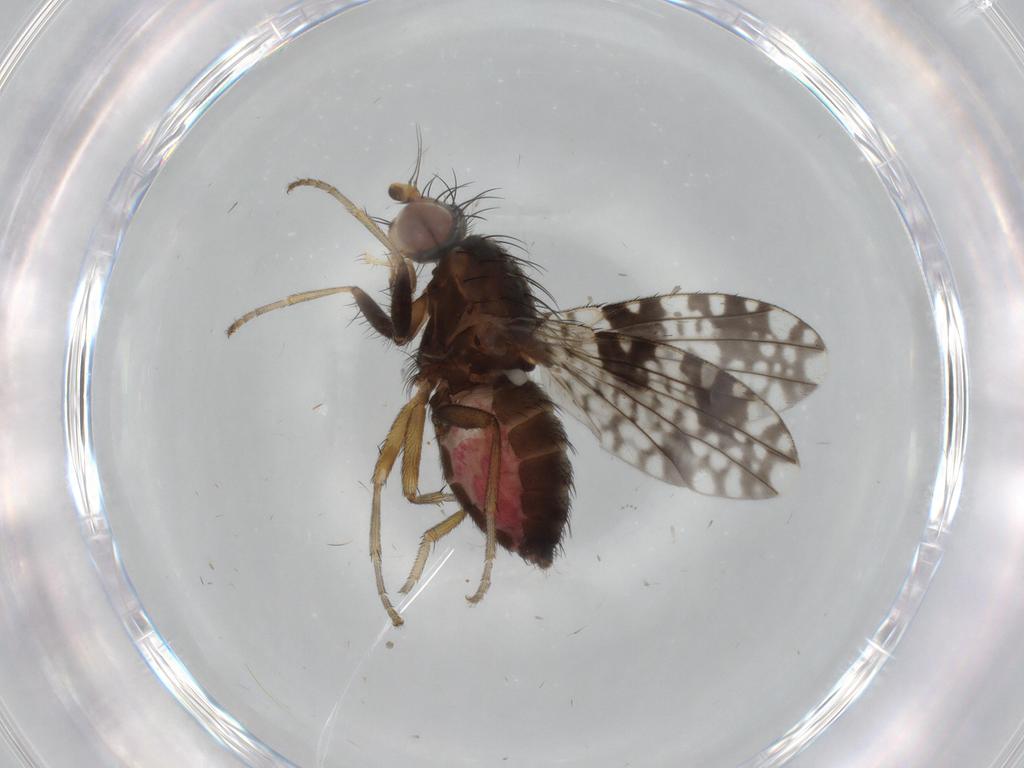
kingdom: Animalia
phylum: Arthropoda
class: Insecta
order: Diptera
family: Tephritidae
